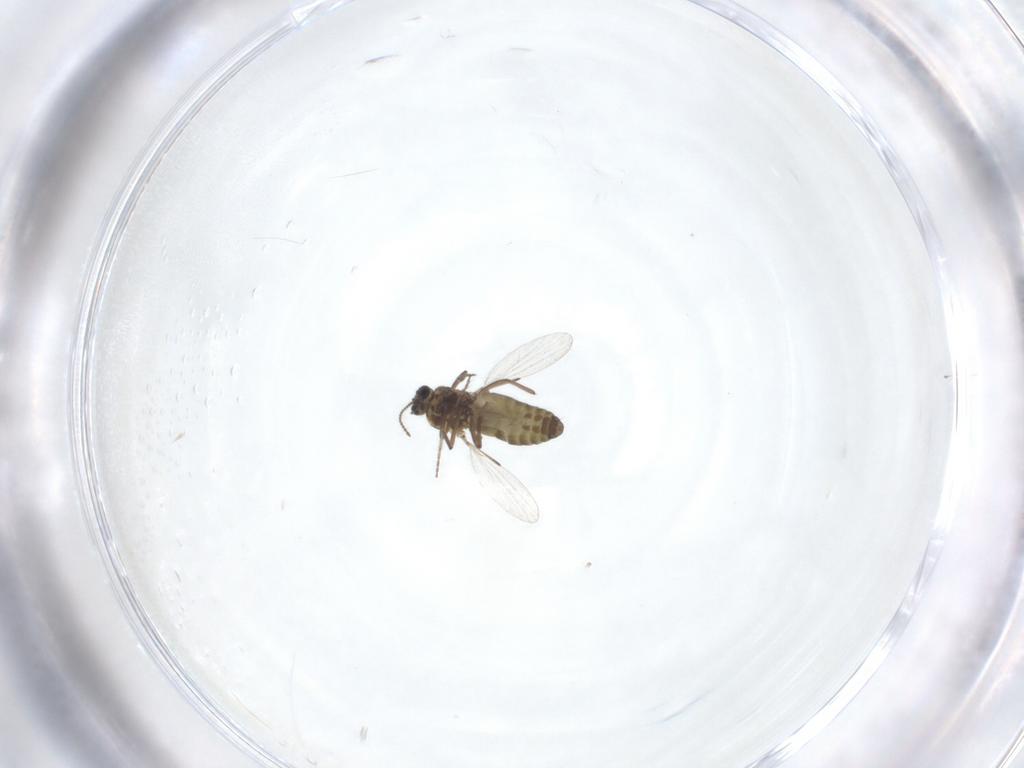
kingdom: Animalia
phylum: Arthropoda
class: Insecta
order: Diptera
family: Ceratopogonidae
